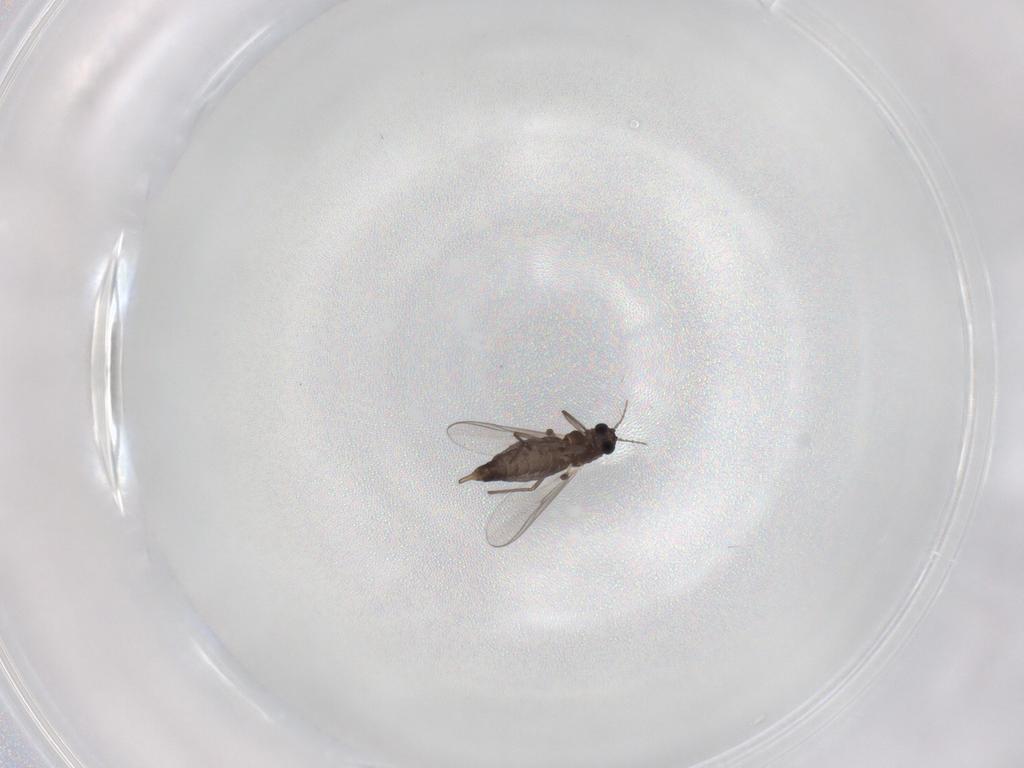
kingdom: Animalia
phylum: Arthropoda
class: Insecta
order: Diptera
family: Chironomidae
